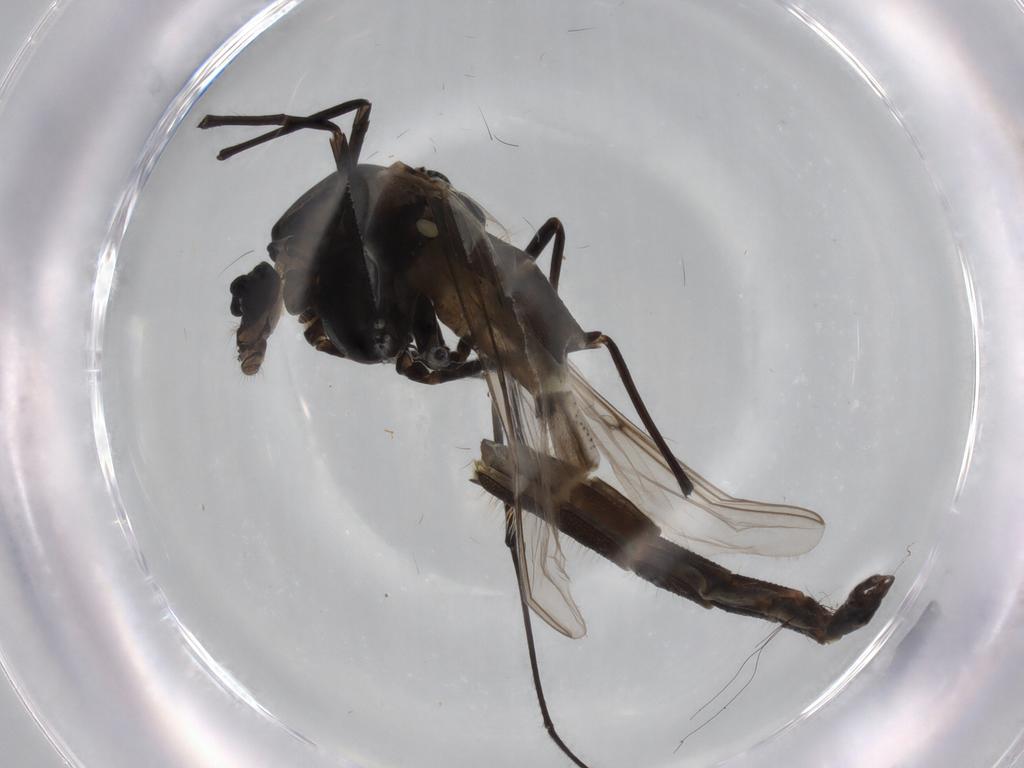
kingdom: Animalia
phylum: Arthropoda
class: Insecta
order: Diptera
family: Chironomidae
